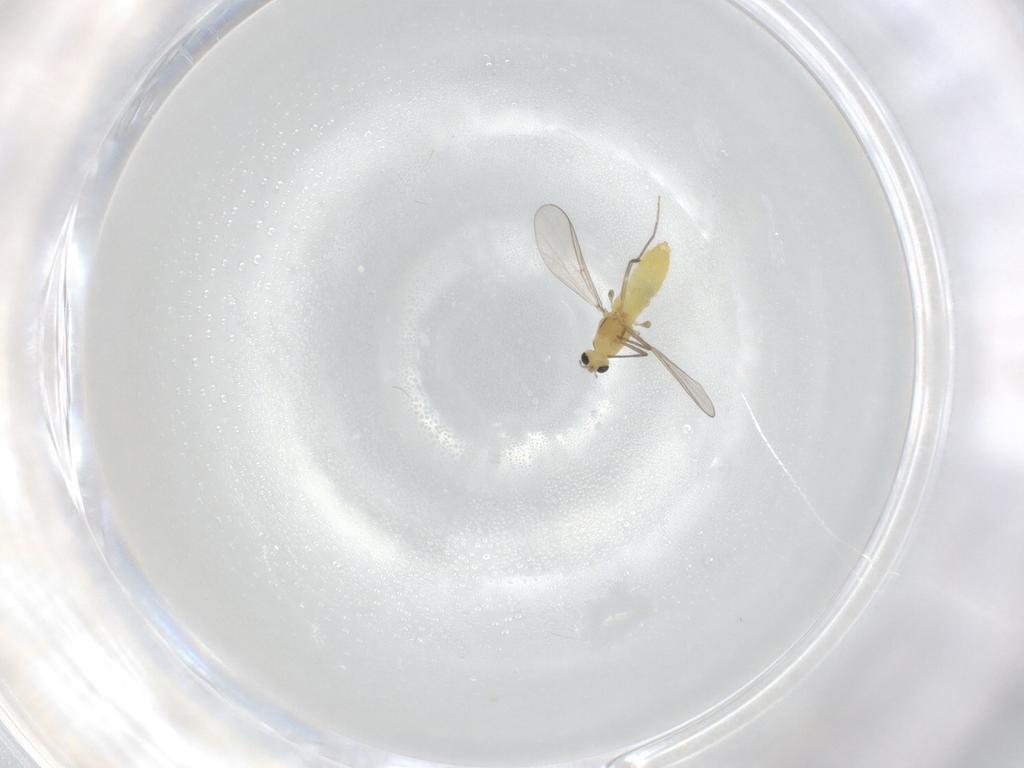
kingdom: Animalia
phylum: Arthropoda
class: Insecta
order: Diptera
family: Chironomidae
